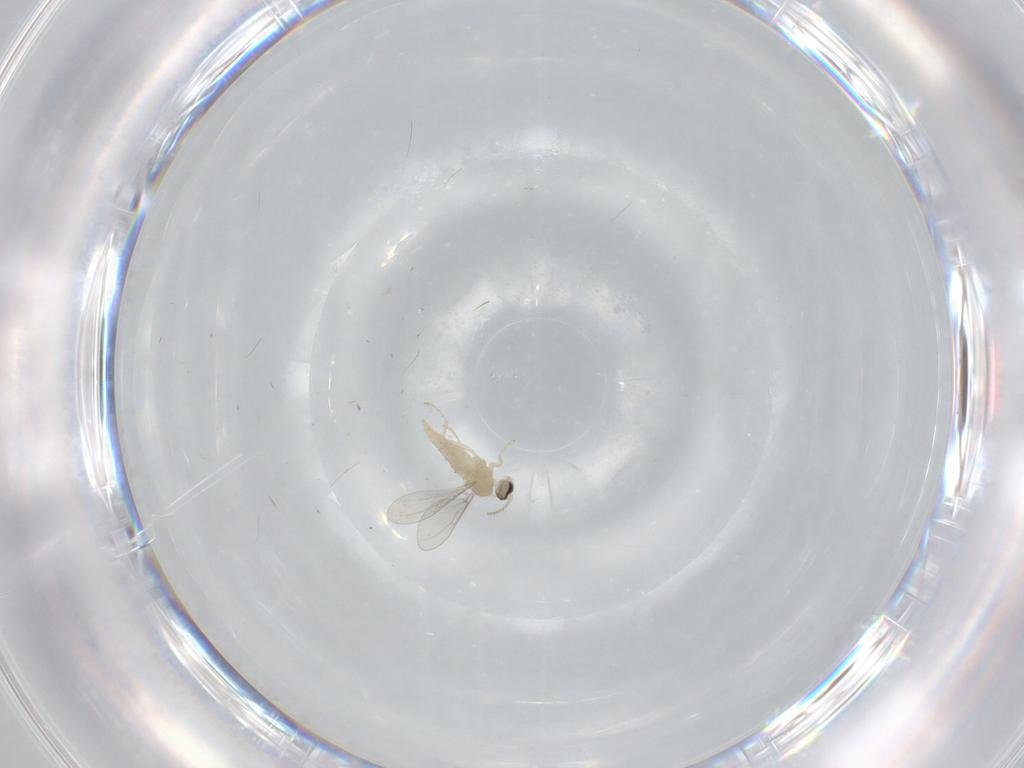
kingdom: Animalia
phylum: Arthropoda
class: Insecta
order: Diptera
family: Cecidomyiidae
